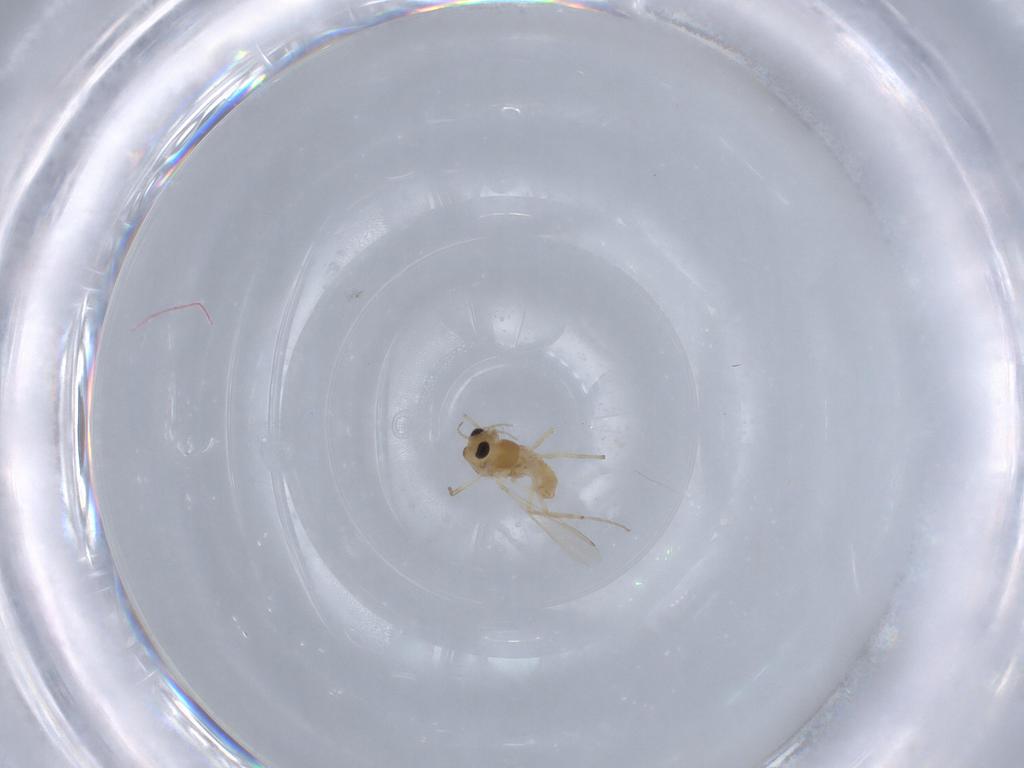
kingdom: Animalia
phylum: Arthropoda
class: Insecta
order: Diptera
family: Chironomidae
